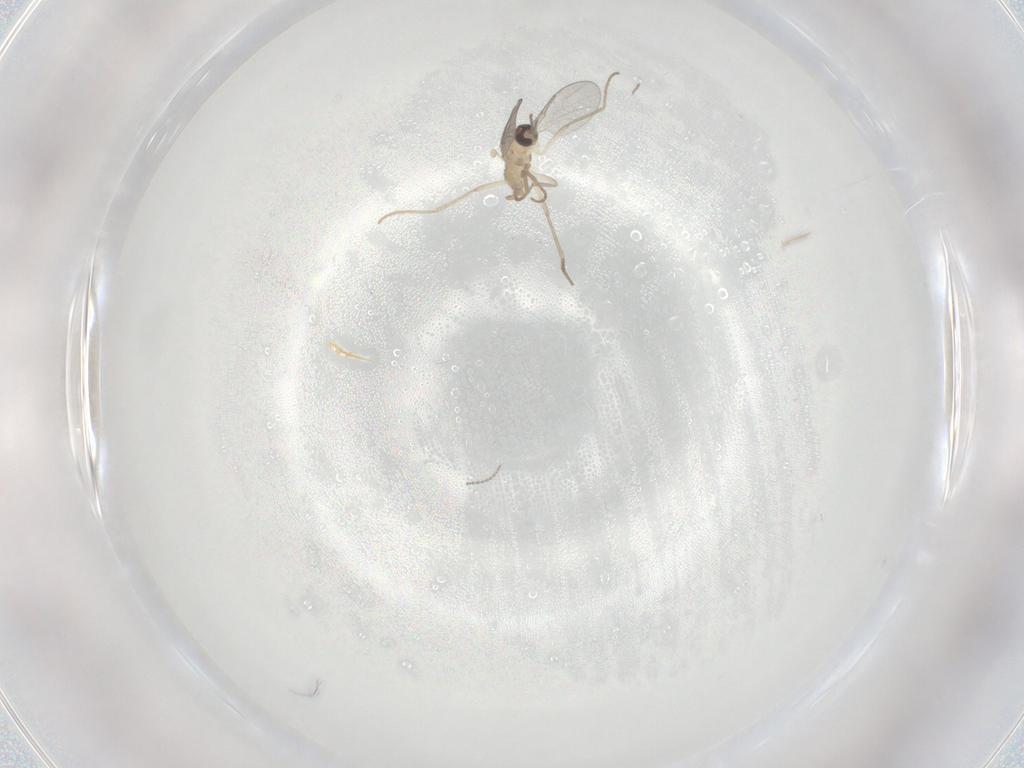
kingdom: Animalia
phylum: Arthropoda
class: Insecta
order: Diptera
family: Cecidomyiidae
